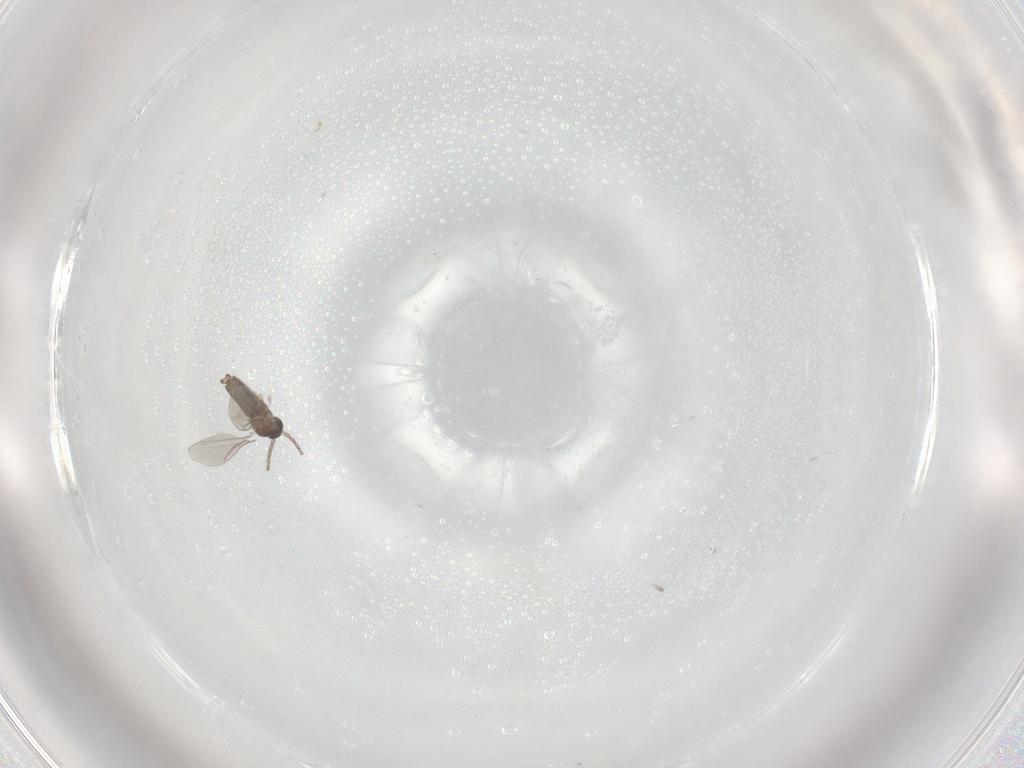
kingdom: Animalia
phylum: Arthropoda
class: Insecta
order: Diptera
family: Cecidomyiidae
